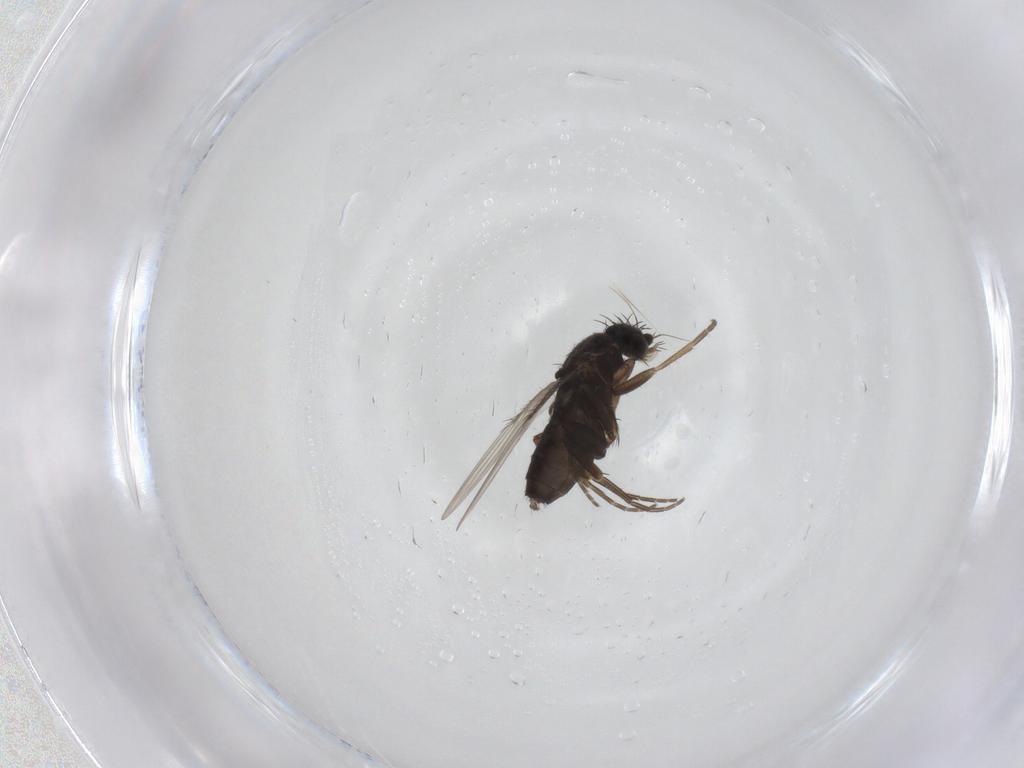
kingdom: Animalia
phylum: Arthropoda
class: Insecta
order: Diptera
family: Phoridae
